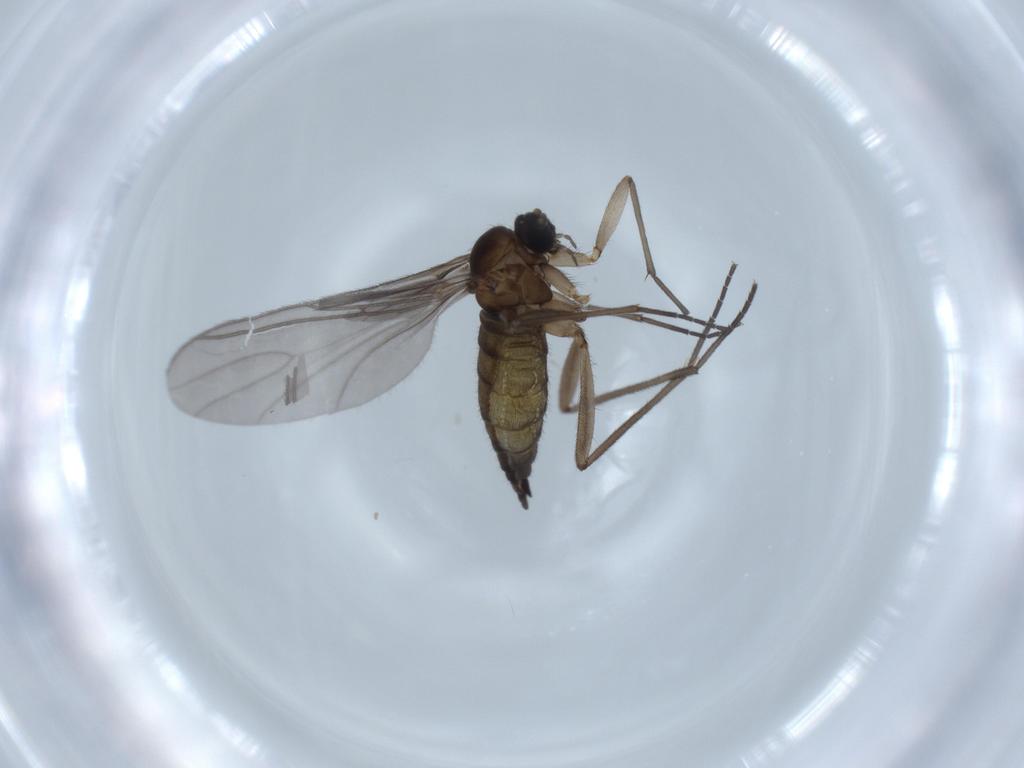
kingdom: Animalia
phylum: Arthropoda
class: Insecta
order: Diptera
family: Sciaridae
